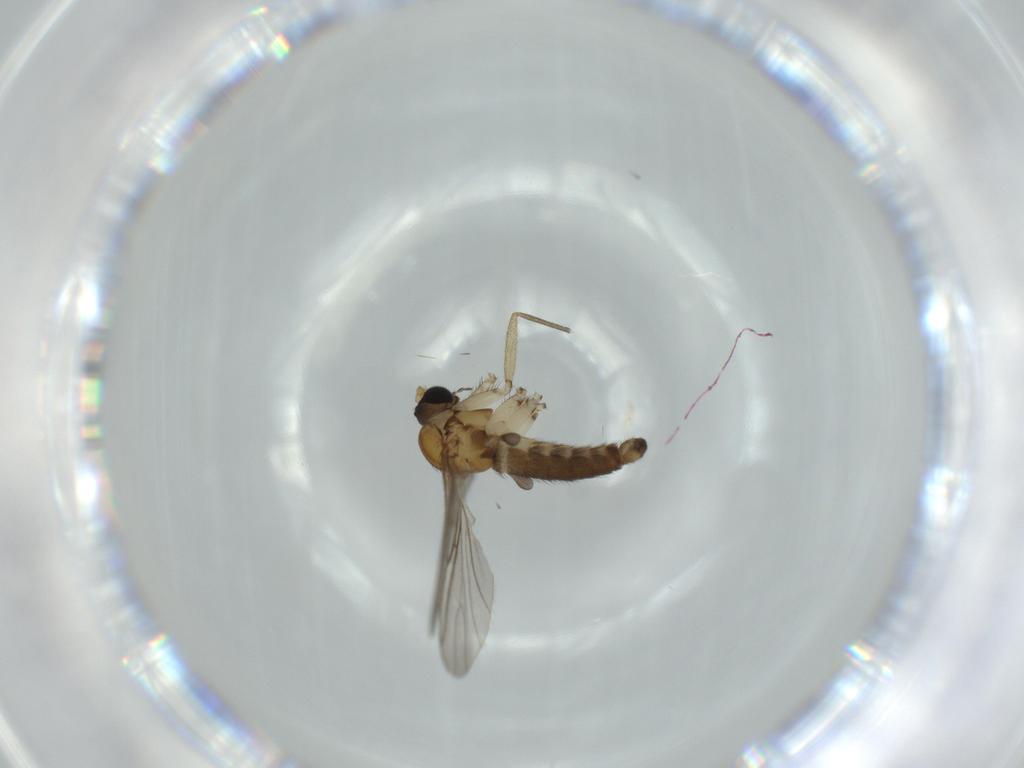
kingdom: Animalia
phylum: Arthropoda
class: Insecta
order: Diptera
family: Sciaridae
